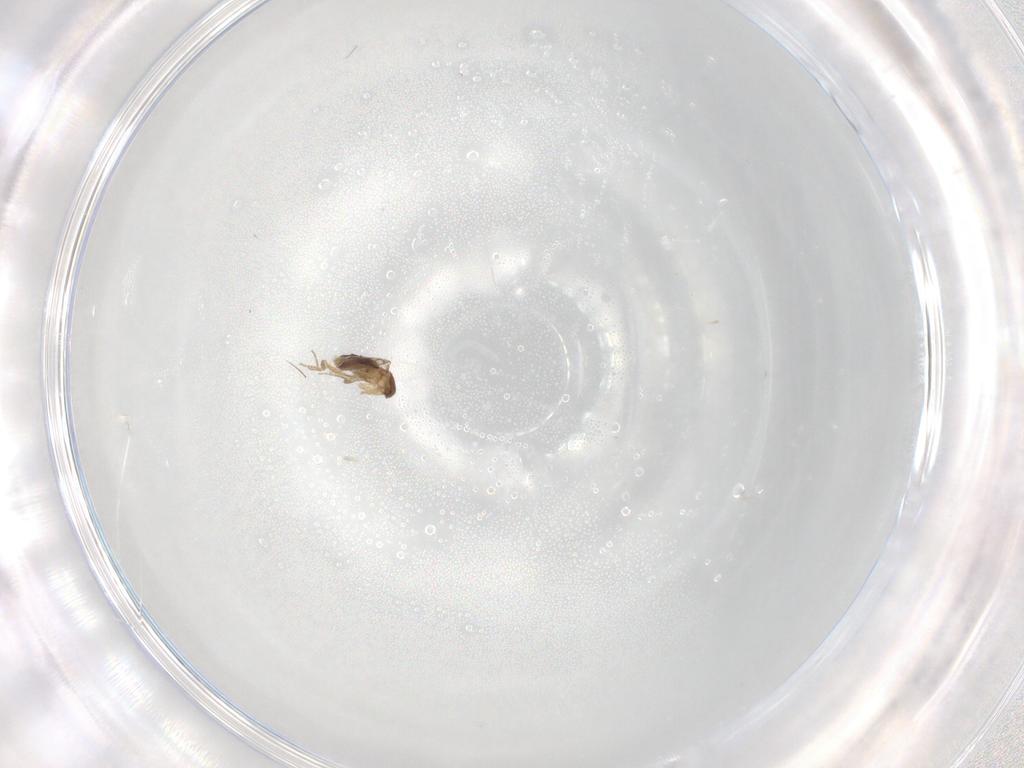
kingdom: Animalia
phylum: Arthropoda
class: Insecta
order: Diptera
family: Phoridae
